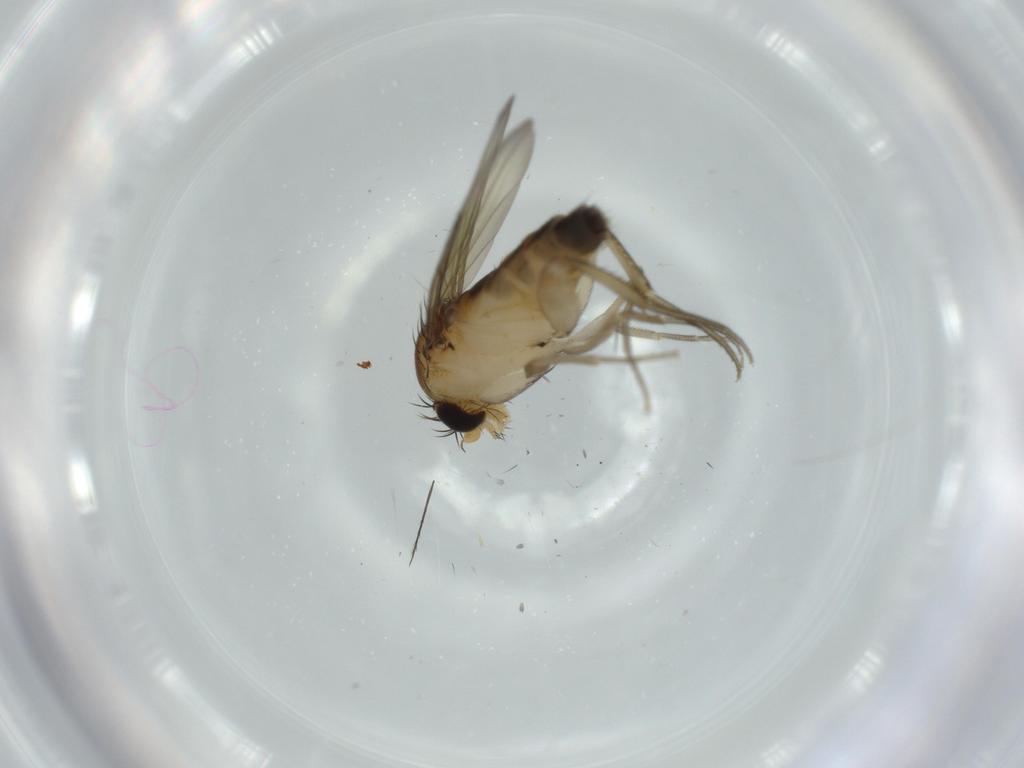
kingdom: Animalia
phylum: Arthropoda
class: Insecta
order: Diptera
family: Phoridae
